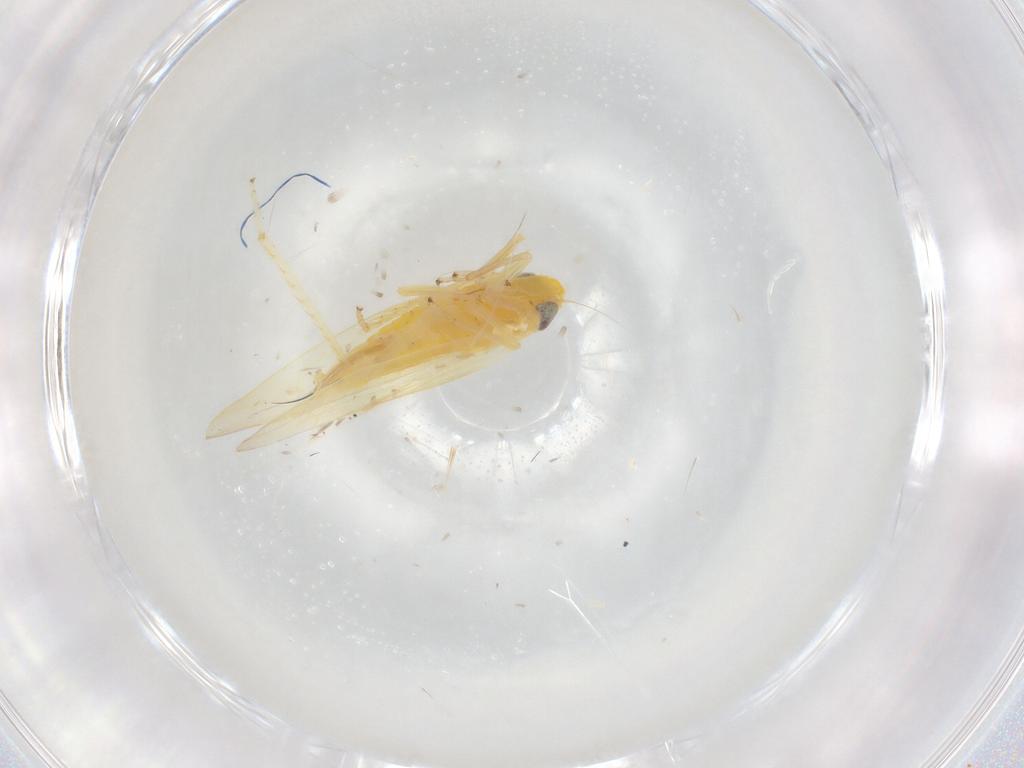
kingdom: Animalia
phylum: Arthropoda
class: Insecta
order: Hemiptera
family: Cicadellidae
